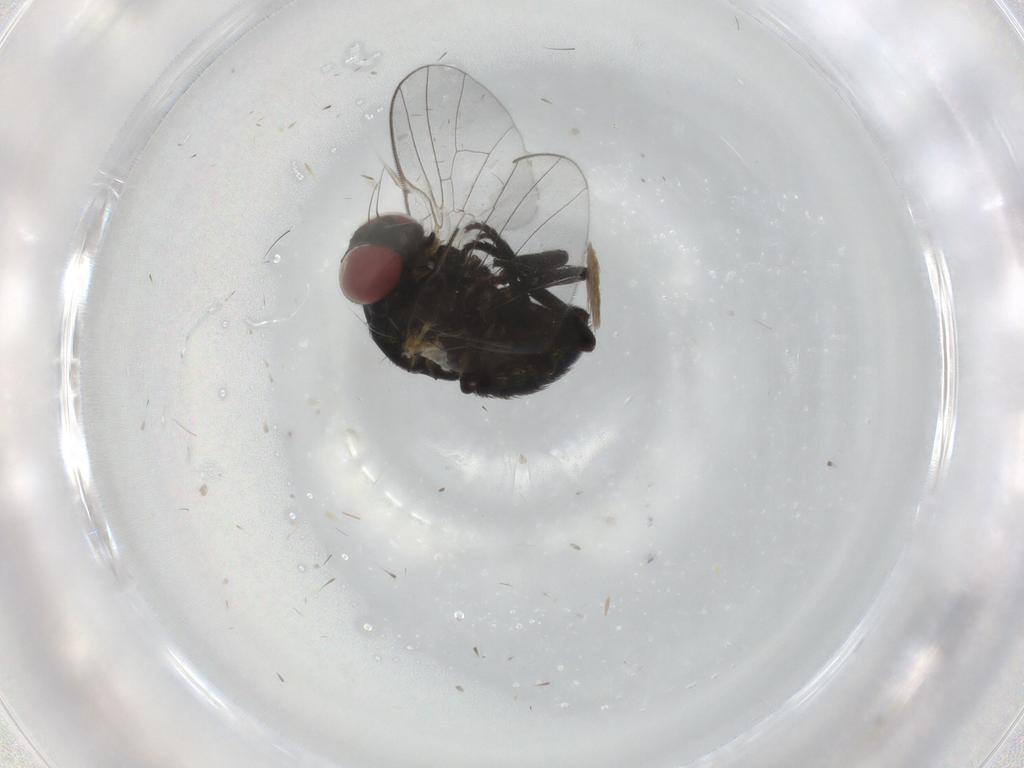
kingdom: Animalia
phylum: Arthropoda
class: Insecta
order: Diptera
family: Agromyzidae
